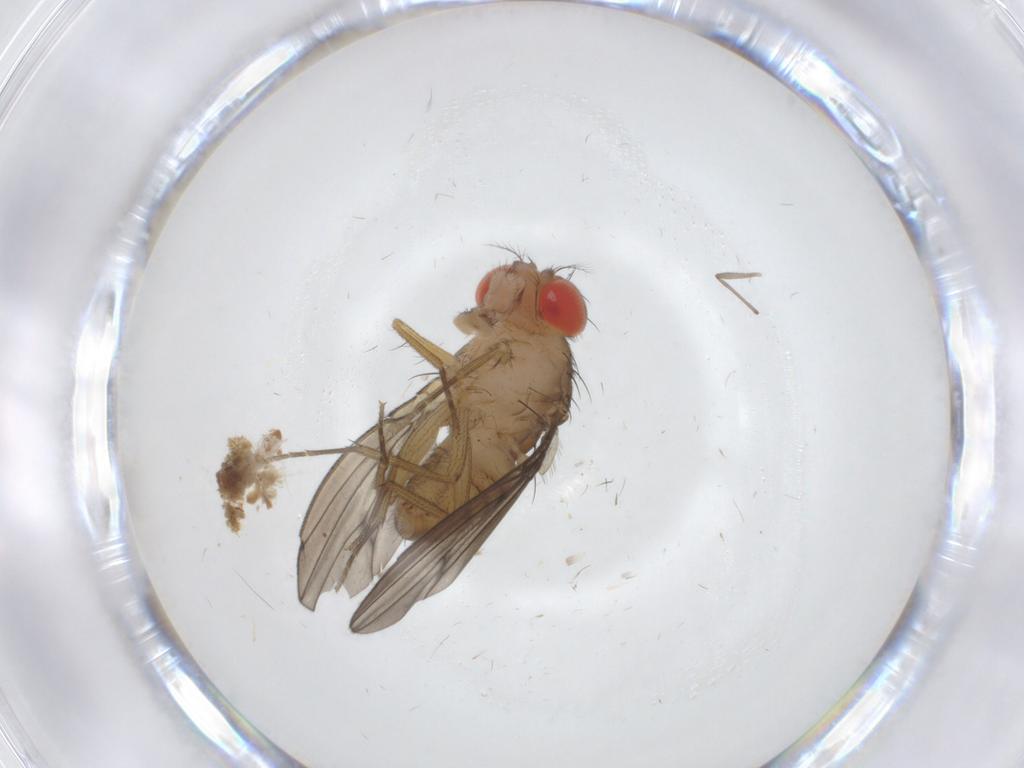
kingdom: Animalia
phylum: Arthropoda
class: Insecta
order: Diptera
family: Drosophilidae
